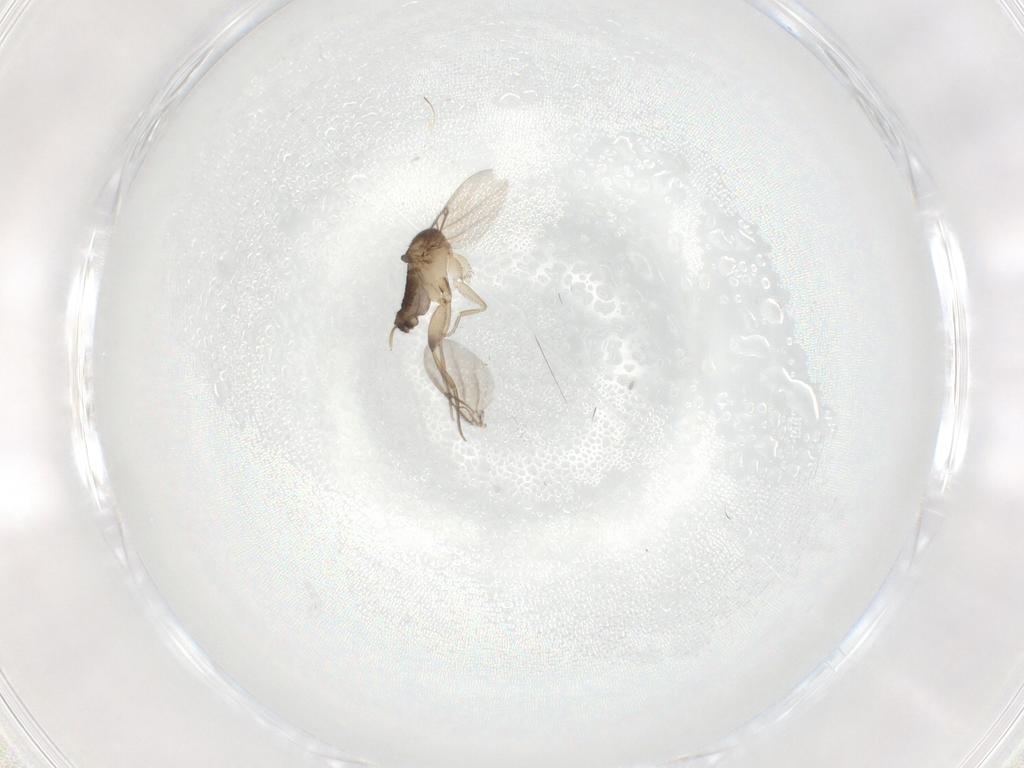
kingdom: Animalia
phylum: Arthropoda
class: Insecta
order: Diptera
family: Phoridae
